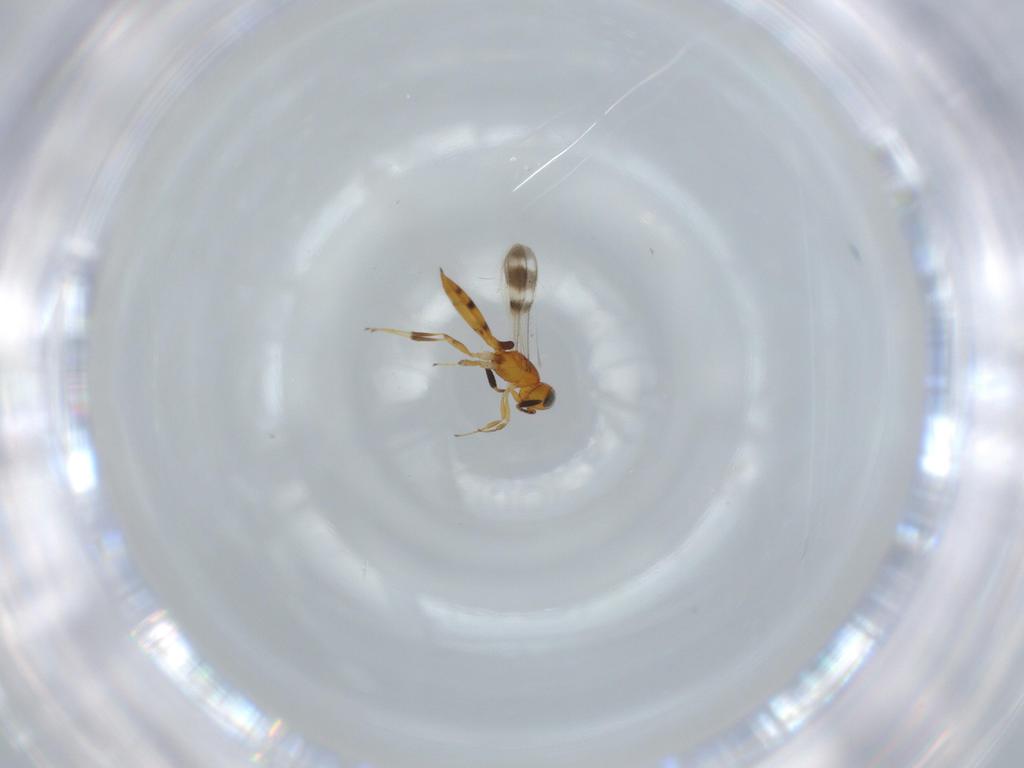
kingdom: Animalia
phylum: Arthropoda
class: Insecta
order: Hymenoptera
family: Scelionidae
